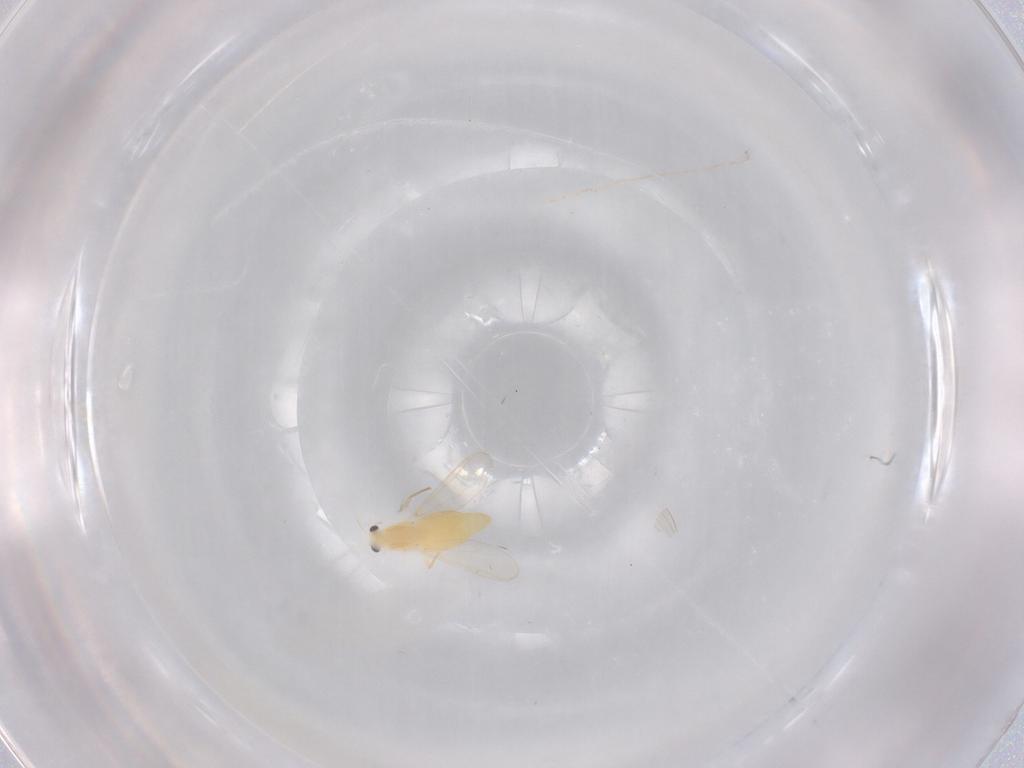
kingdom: Animalia
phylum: Arthropoda
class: Insecta
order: Diptera
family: Chironomidae
